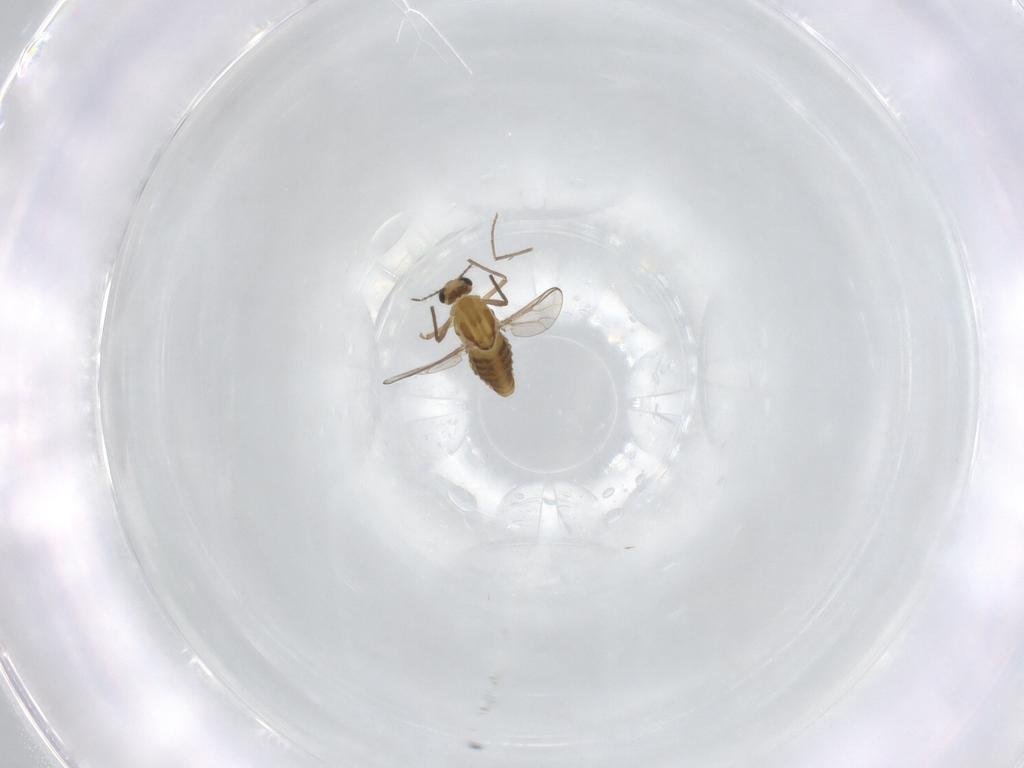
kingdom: Animalia
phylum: Arthropoda
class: Insecta
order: Diptera
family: Chironomidae
